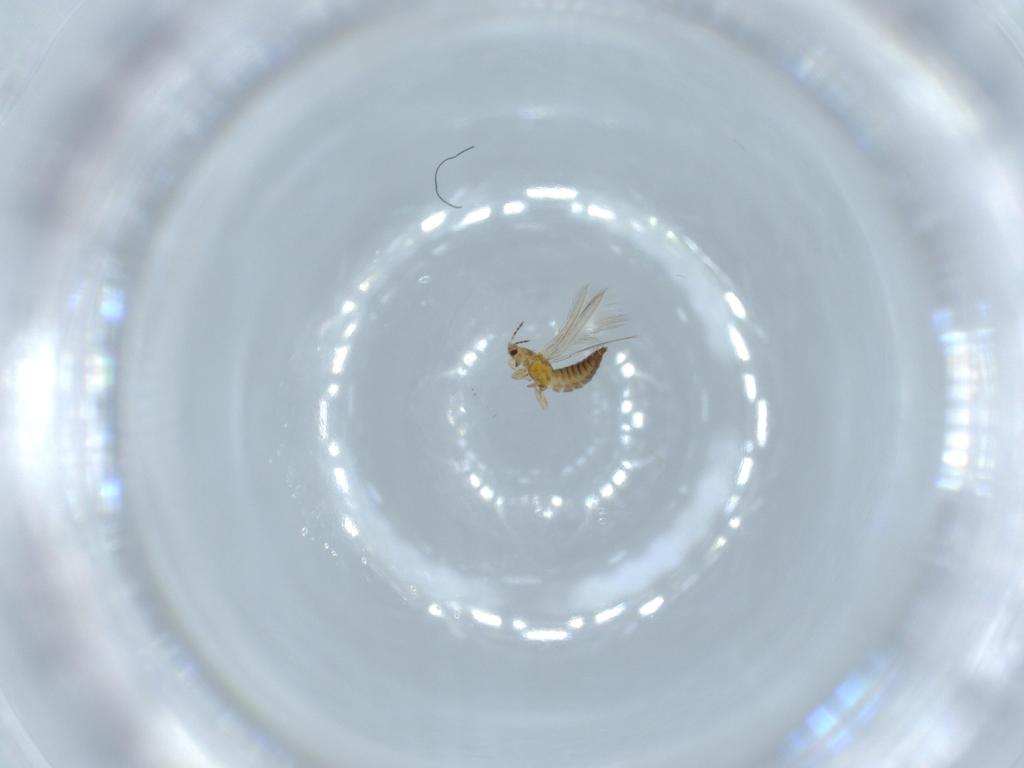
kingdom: Animalia
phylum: Arthropoda
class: Insecta
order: Thysanoptera
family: Thripidae
